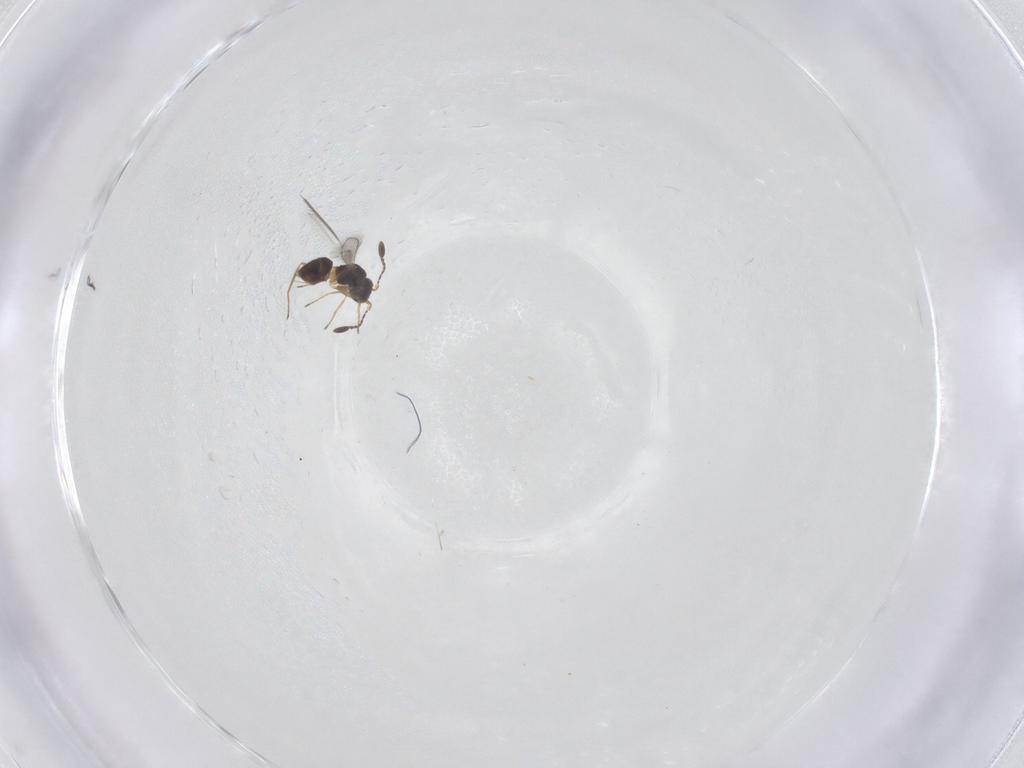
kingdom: Animalia
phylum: Arthropoda
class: Insecta
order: Hymenoptera
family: Mymaridae
